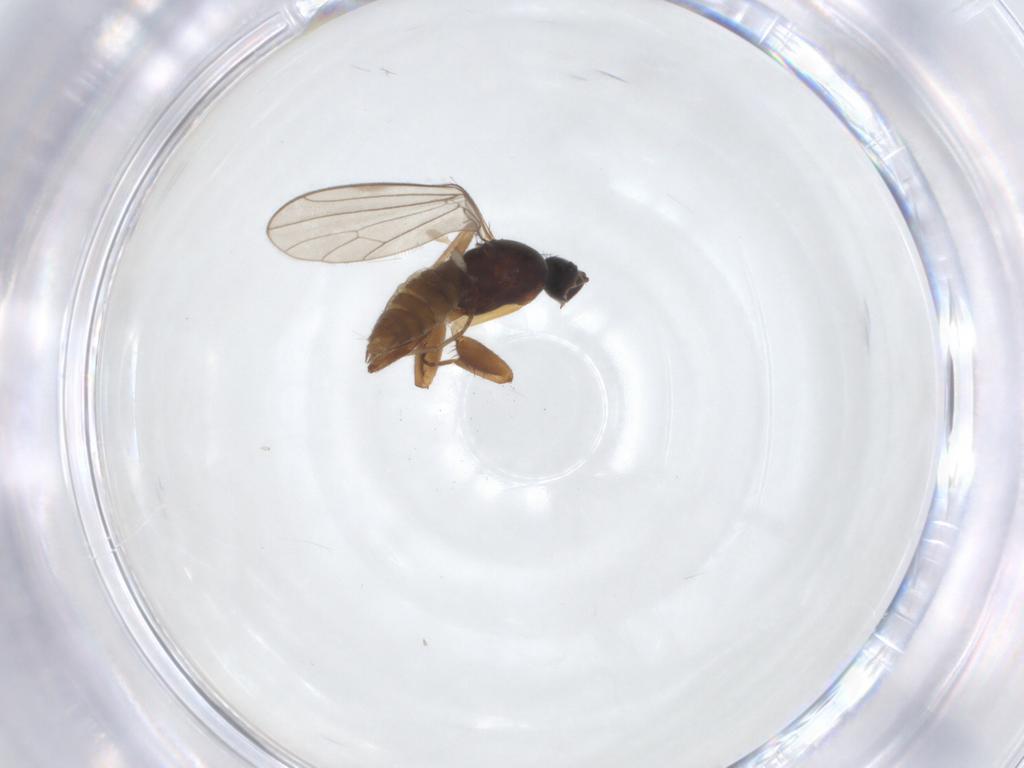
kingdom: Animalia
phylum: Arthropoda
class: Insecta
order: Diptera
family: Empididae
